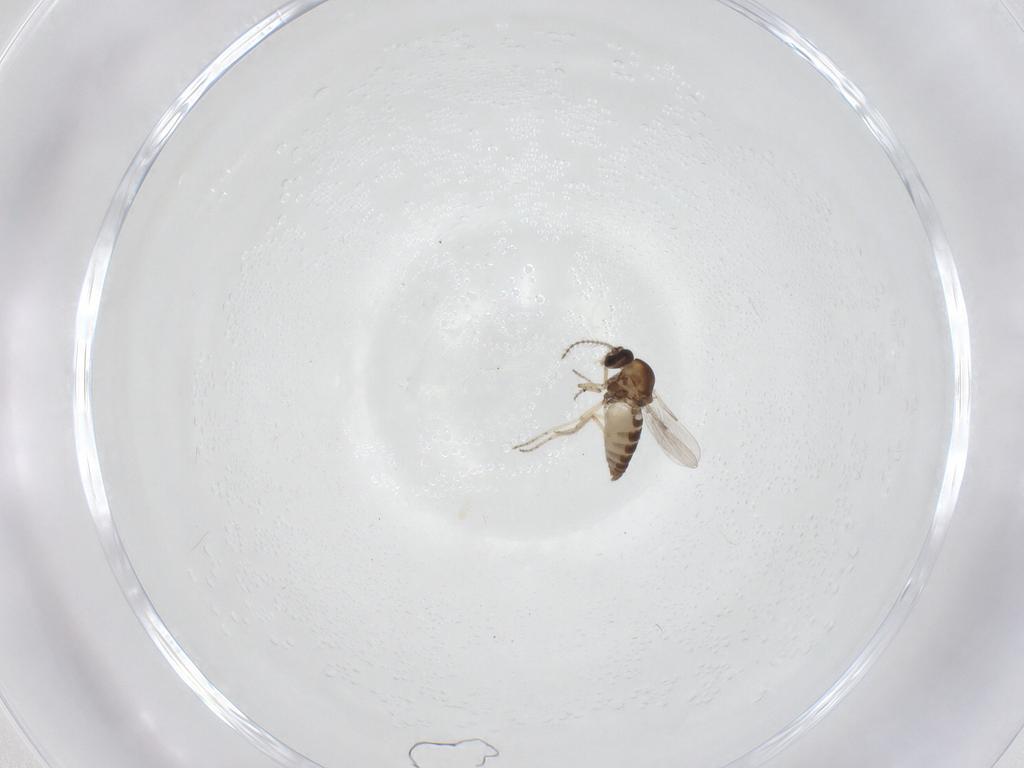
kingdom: Animalia
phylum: Arthropoda
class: Insecta
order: Diptera
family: Ceratopogonidae
